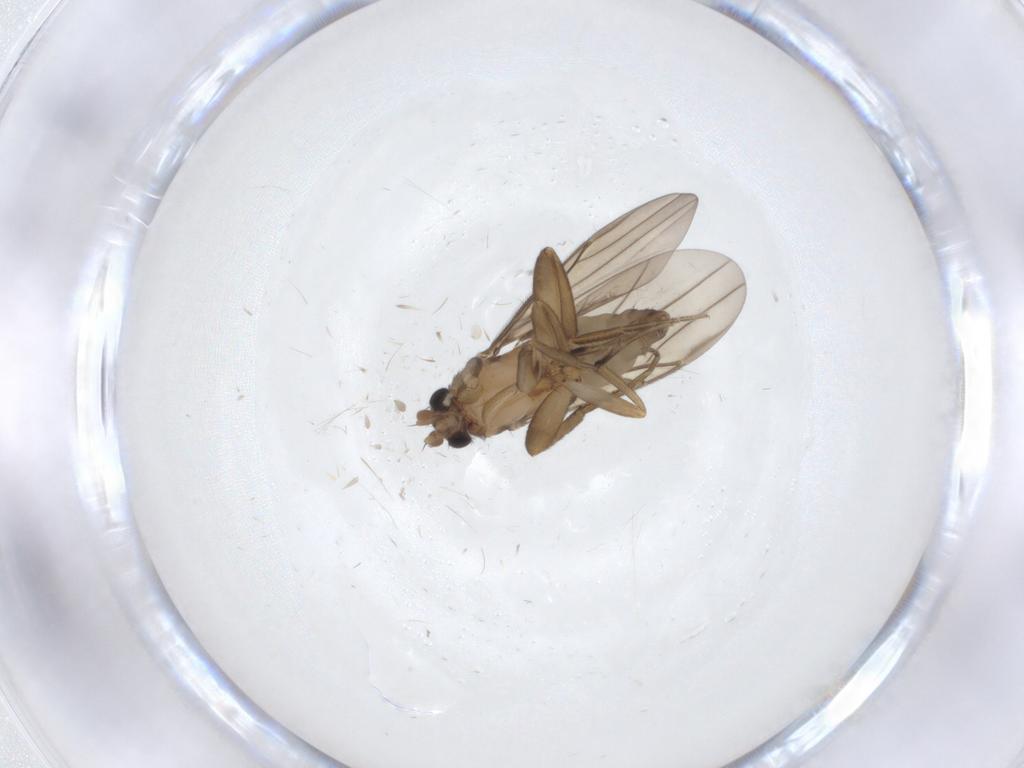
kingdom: Animalia
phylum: Arthropoda
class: Insecta
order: Diptera
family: Phoridae
